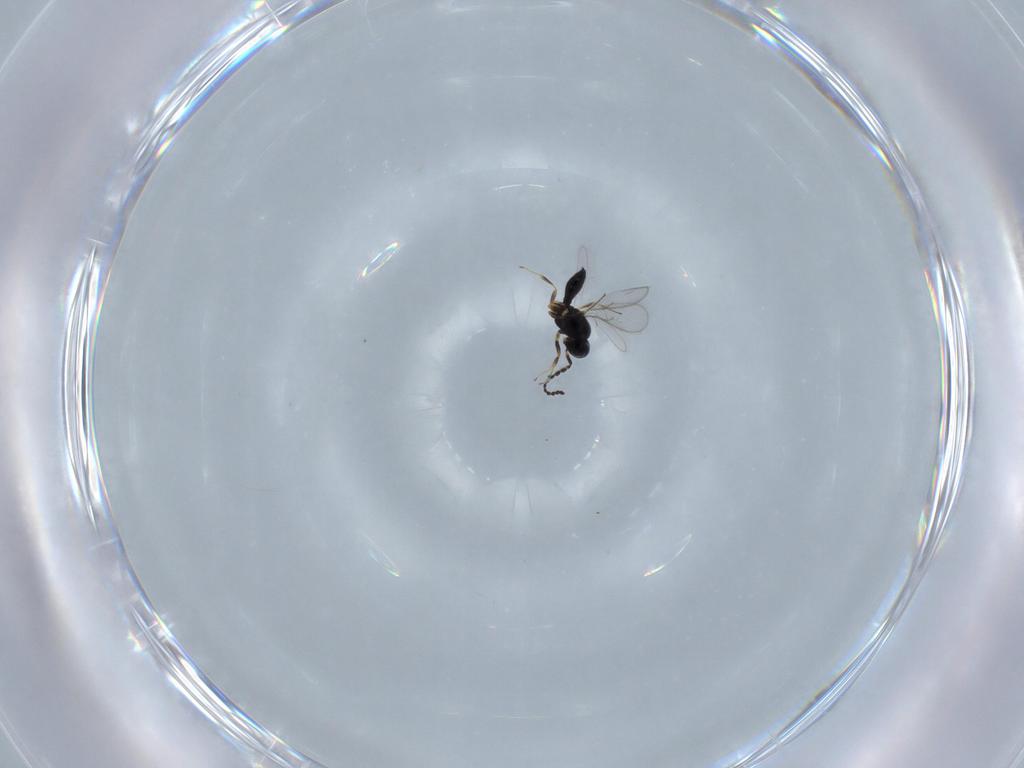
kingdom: Animalia
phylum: Arthropoda
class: Insecta
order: Hymenoptera
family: Scelionidae
